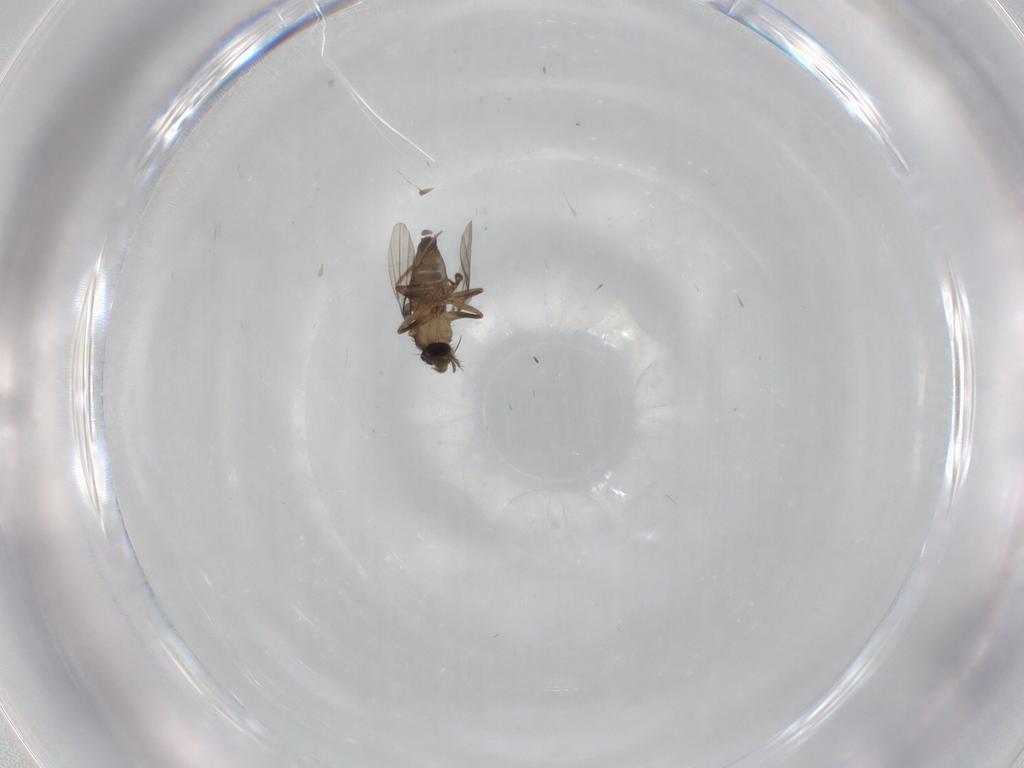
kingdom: Animalia
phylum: Arthropoda
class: Insecta
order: Diptera
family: Phoridae
